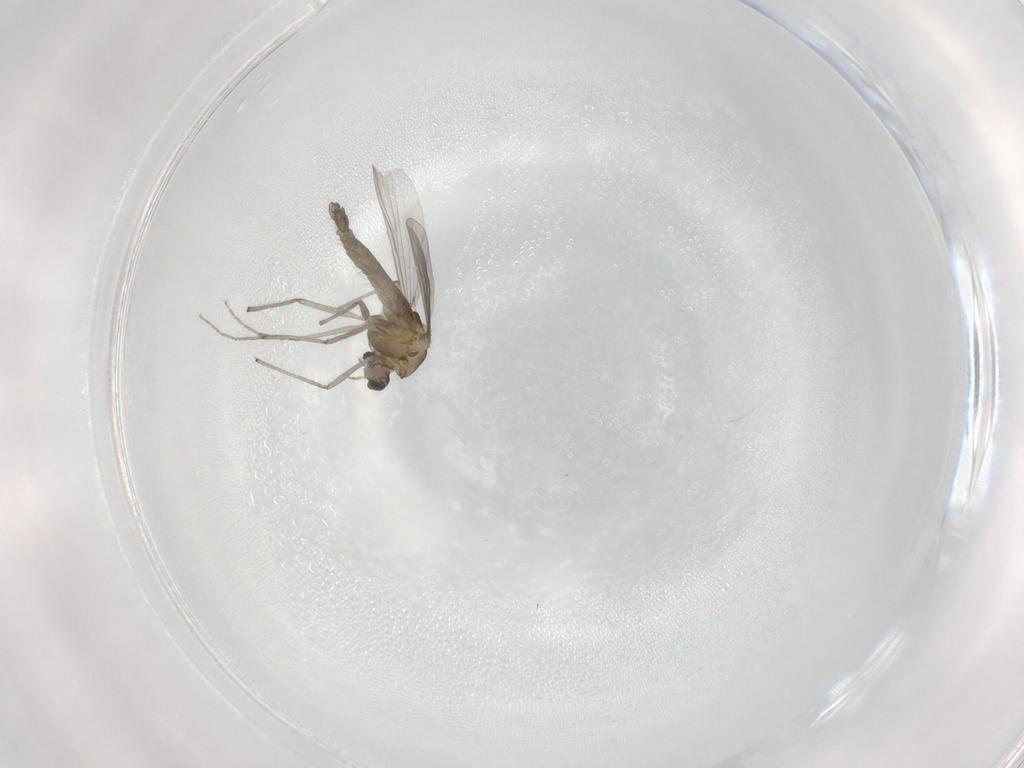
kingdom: Animalia
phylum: Arthropoda
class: Insecta
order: Diptera
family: Chironomidae
